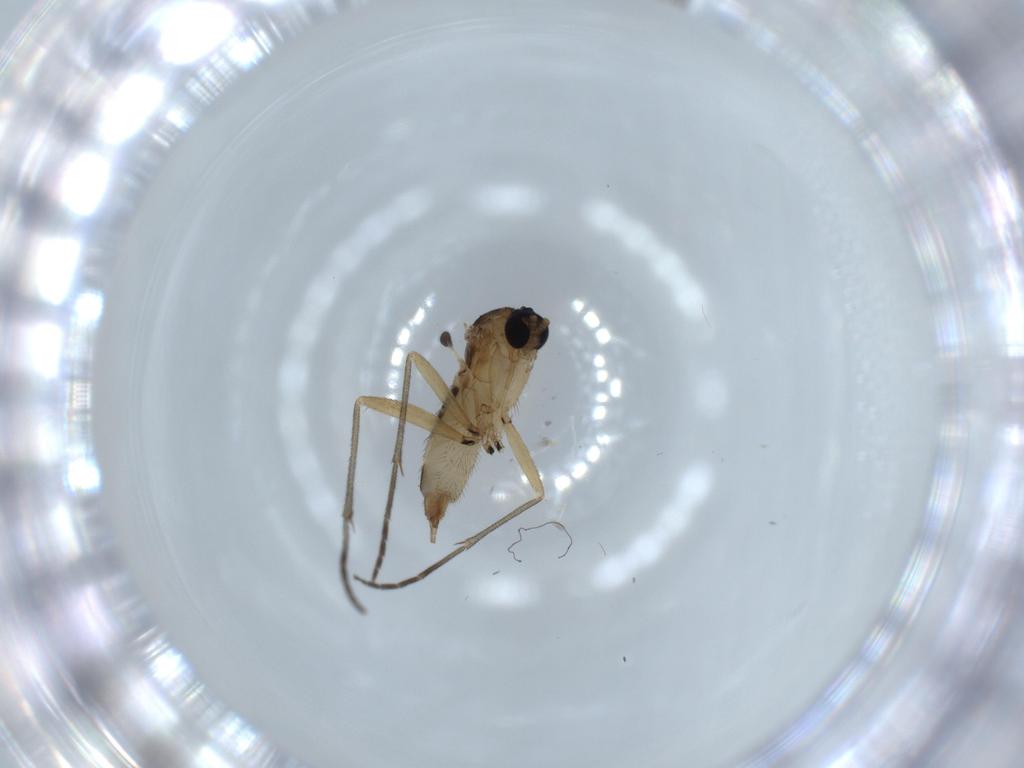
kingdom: Animalia
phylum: Arthropoda
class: Insecta
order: Diptera
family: Sciaridae
